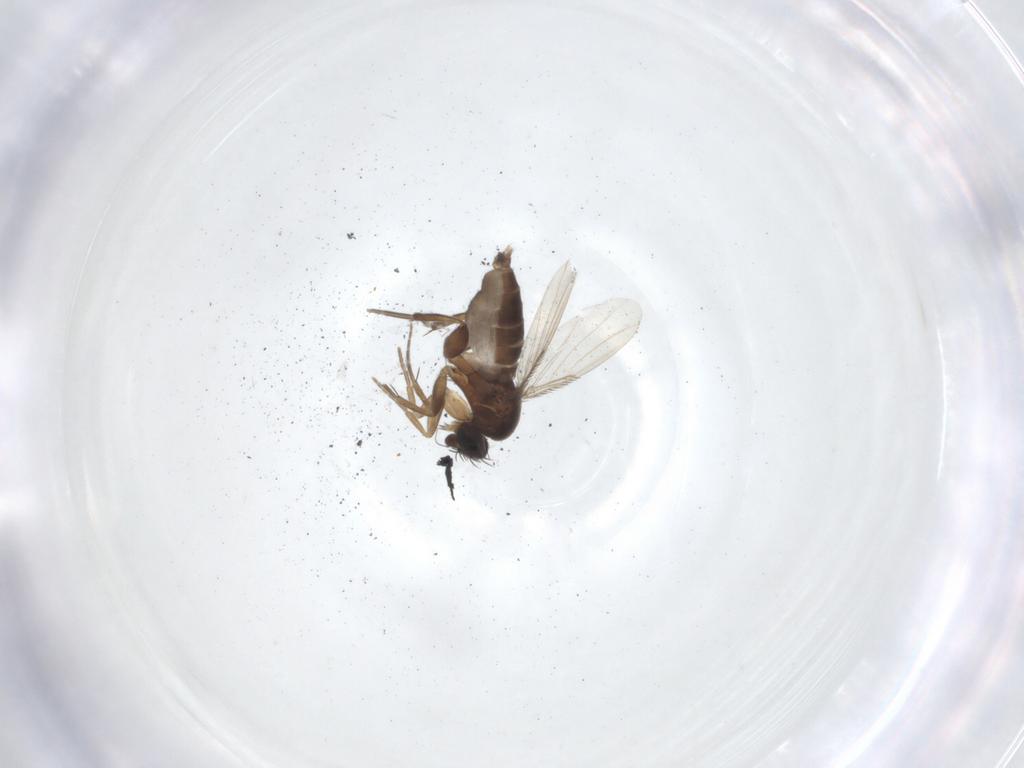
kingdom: Animalia
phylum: Arthropoda
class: Insecta
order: Diptera
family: Phoridae
